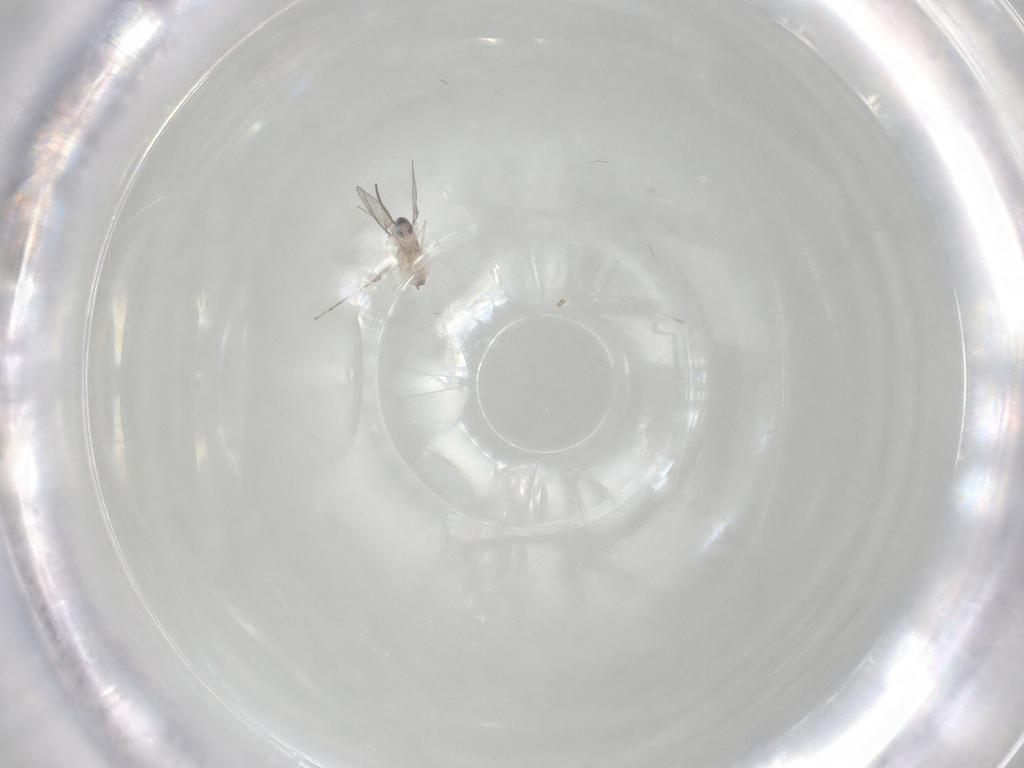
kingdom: Animalia
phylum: Arthropoda
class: Insecta
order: Diptera
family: Cecidomyiidae
